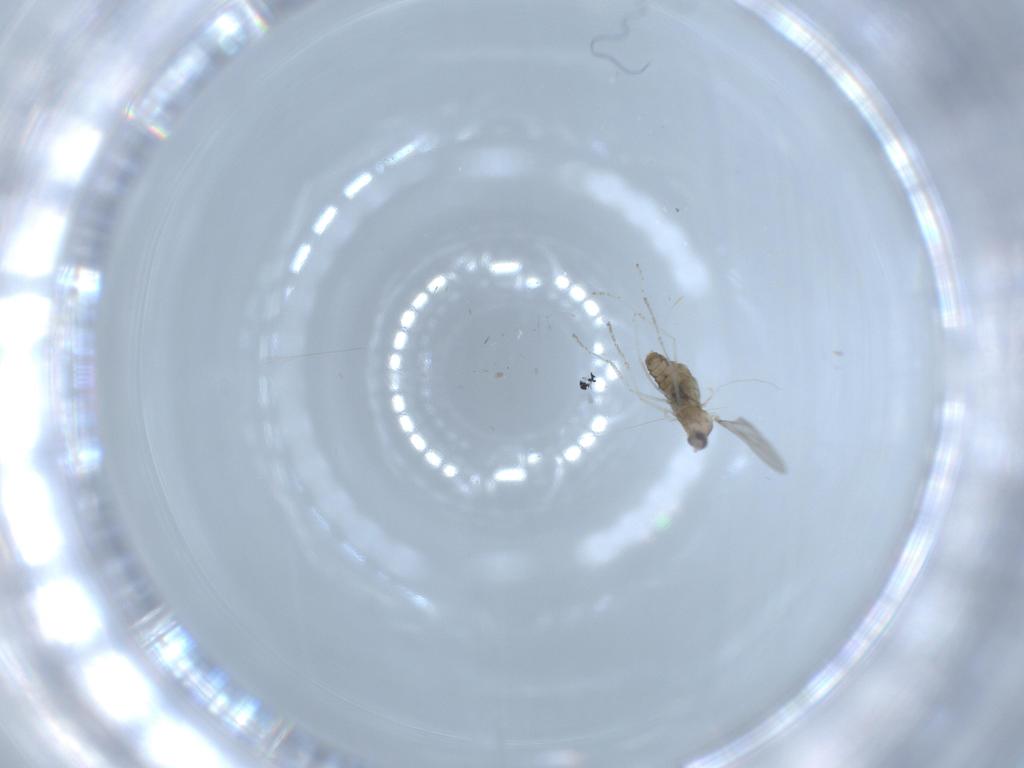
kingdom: Animalia
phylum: Arthropoda
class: Insecta
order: Diptera
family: Cecidomyiidae
